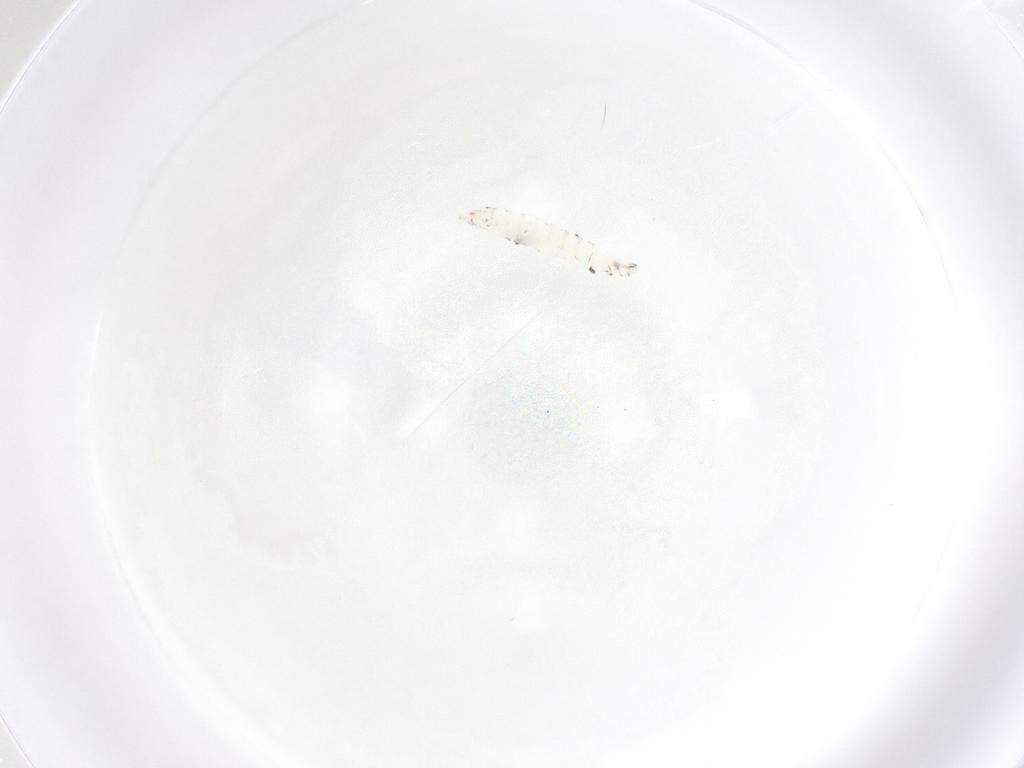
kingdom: Animalia
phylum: Arthropoda
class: Insecta
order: Diptera
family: Drosophilidae
